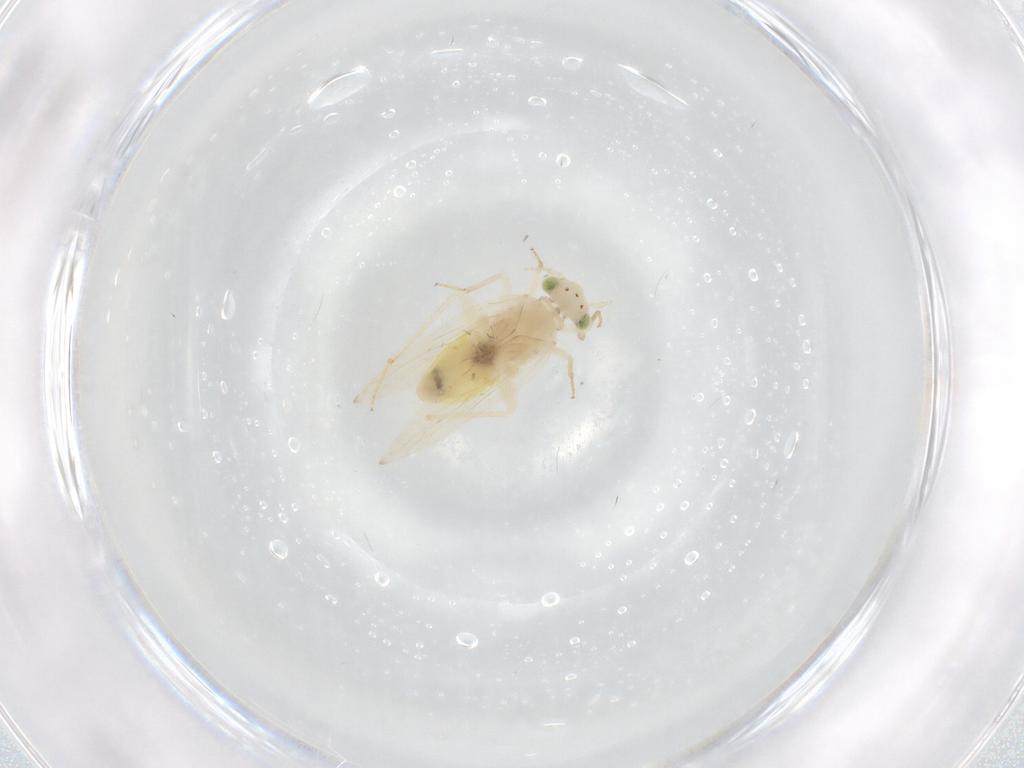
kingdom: Animalia
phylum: Arthropoda
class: Insecta
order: Psocodea
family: Lepidopsocidae
